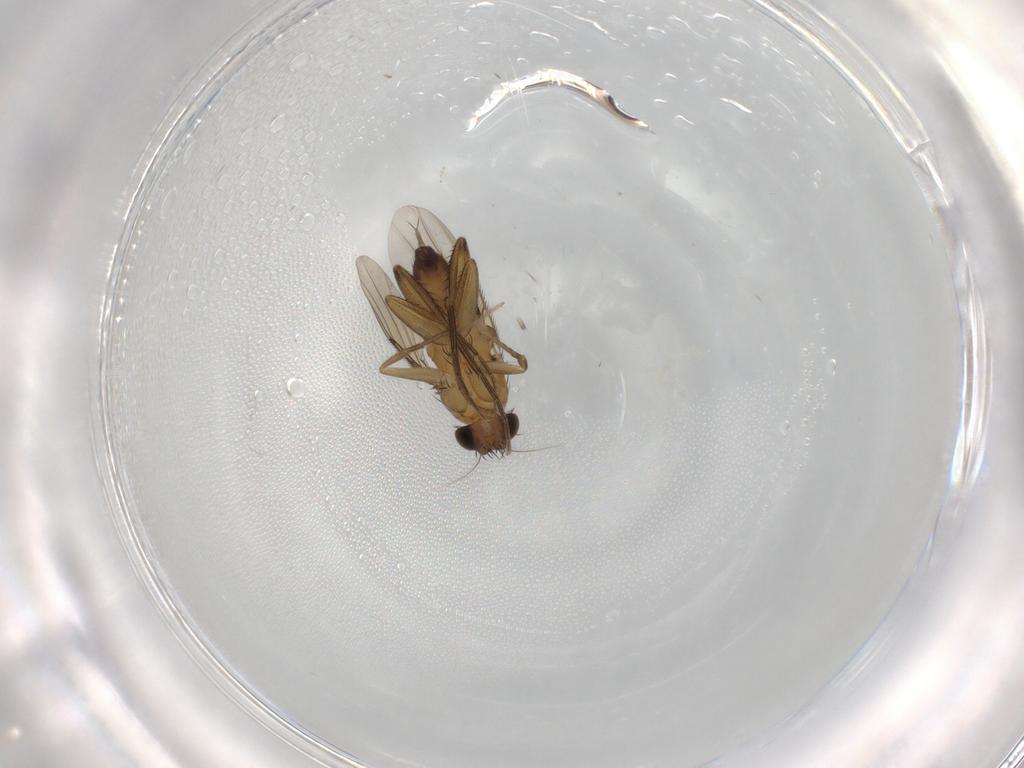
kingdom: Animalia
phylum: Arthropoda
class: Insecta
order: Diptera
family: Phoridae
